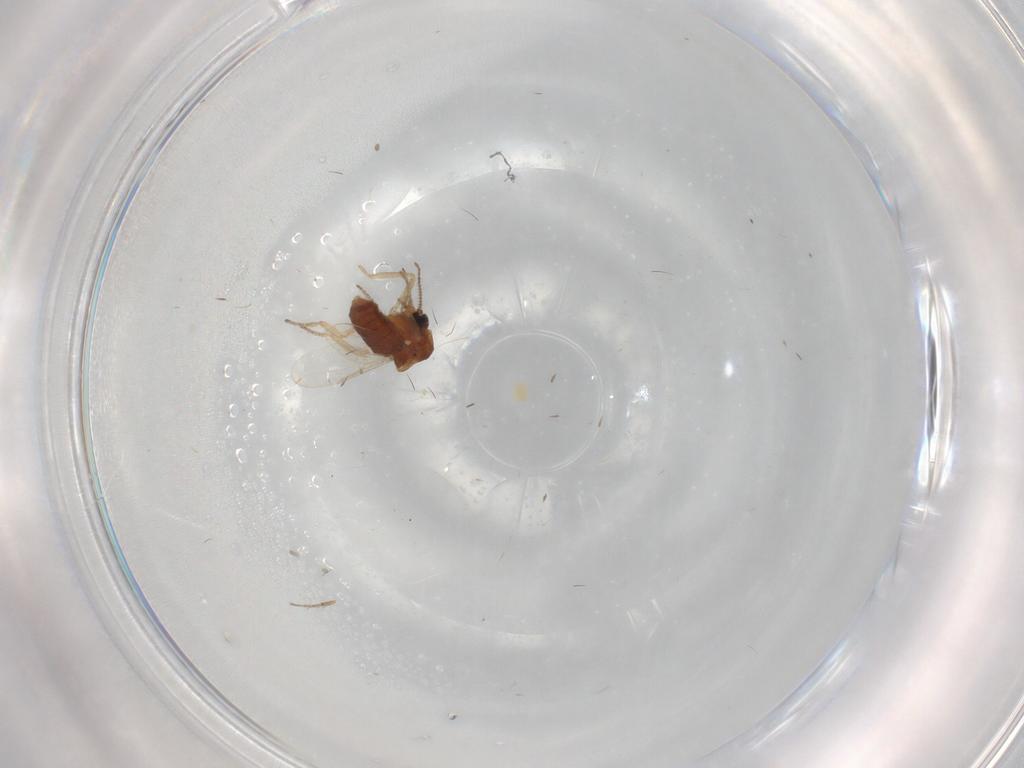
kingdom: Animalia
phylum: Arthropoda
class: Insecta
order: Diptera
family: Ceratopogonidae
